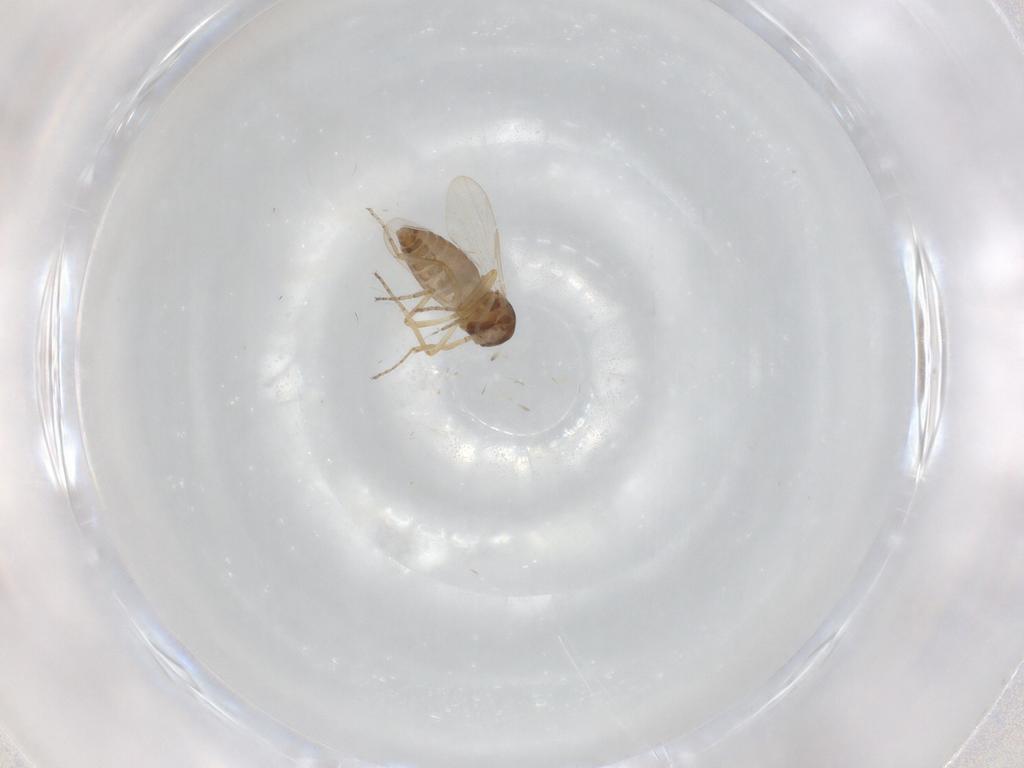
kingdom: Animalia
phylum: Arthropoda
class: Insecta
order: Diptera
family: Ceratopogonidae
